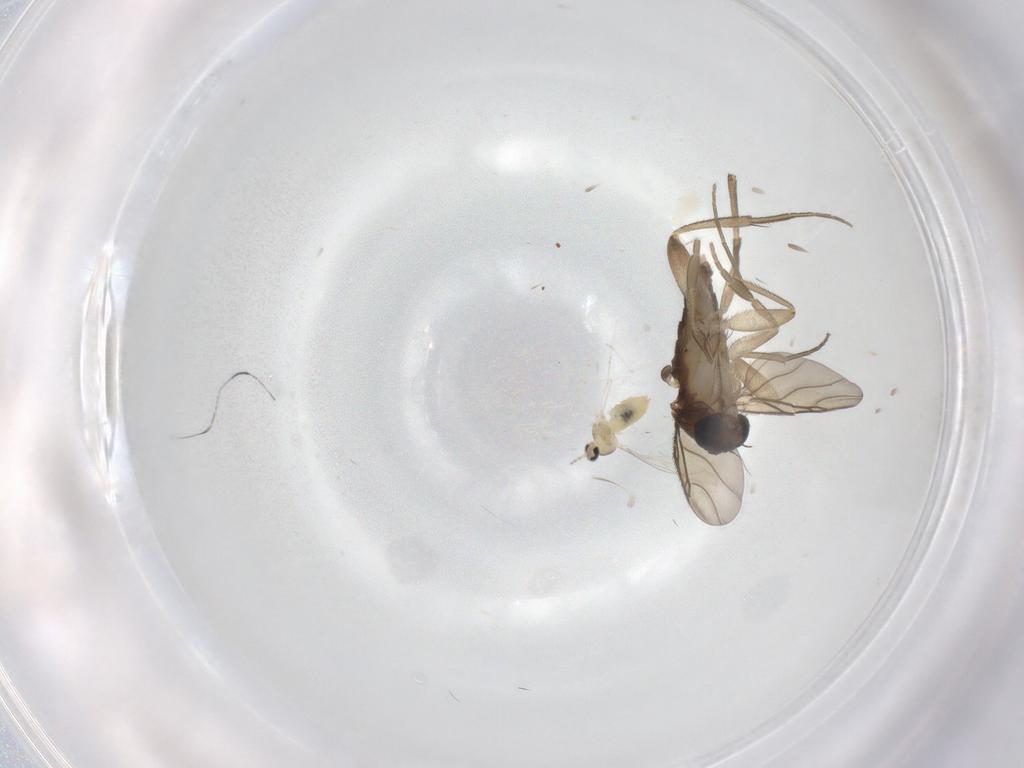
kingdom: Animalia
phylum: Arthropoda
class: Insecta
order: Diptera
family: Cecidomyiidae
